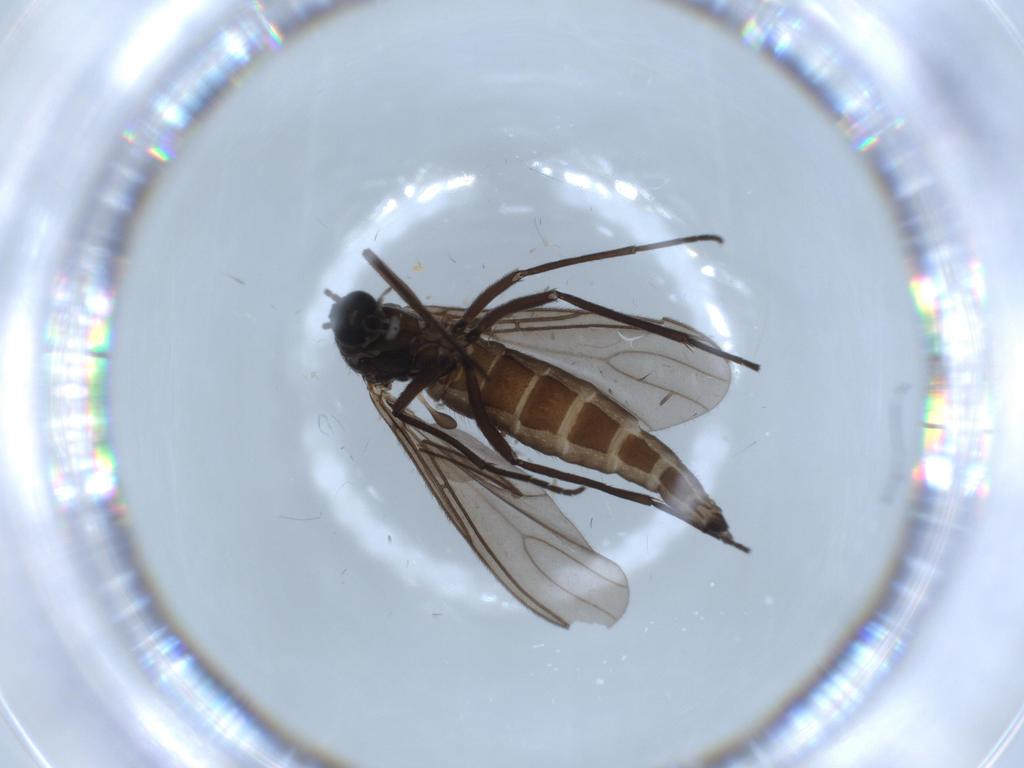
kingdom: Animalia
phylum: Arthropoda
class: Insecta
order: Diptera
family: Sciaridae
